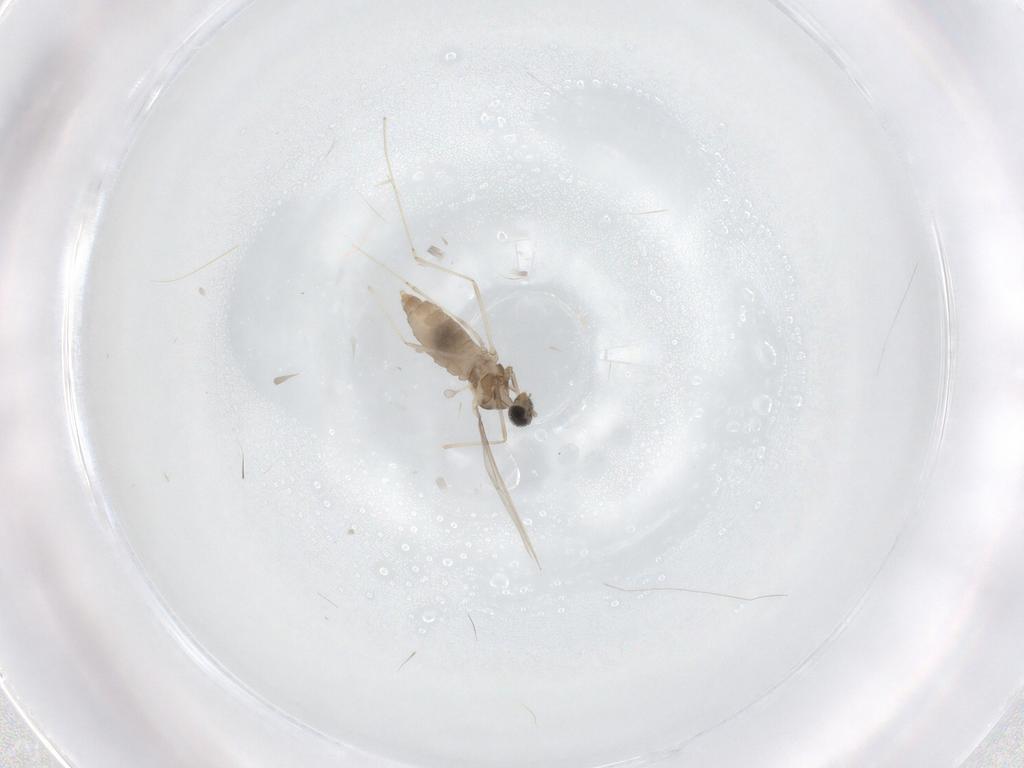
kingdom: Animalia
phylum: Arthropoda
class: Insecta
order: Diptera
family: Cecidomyiidae
